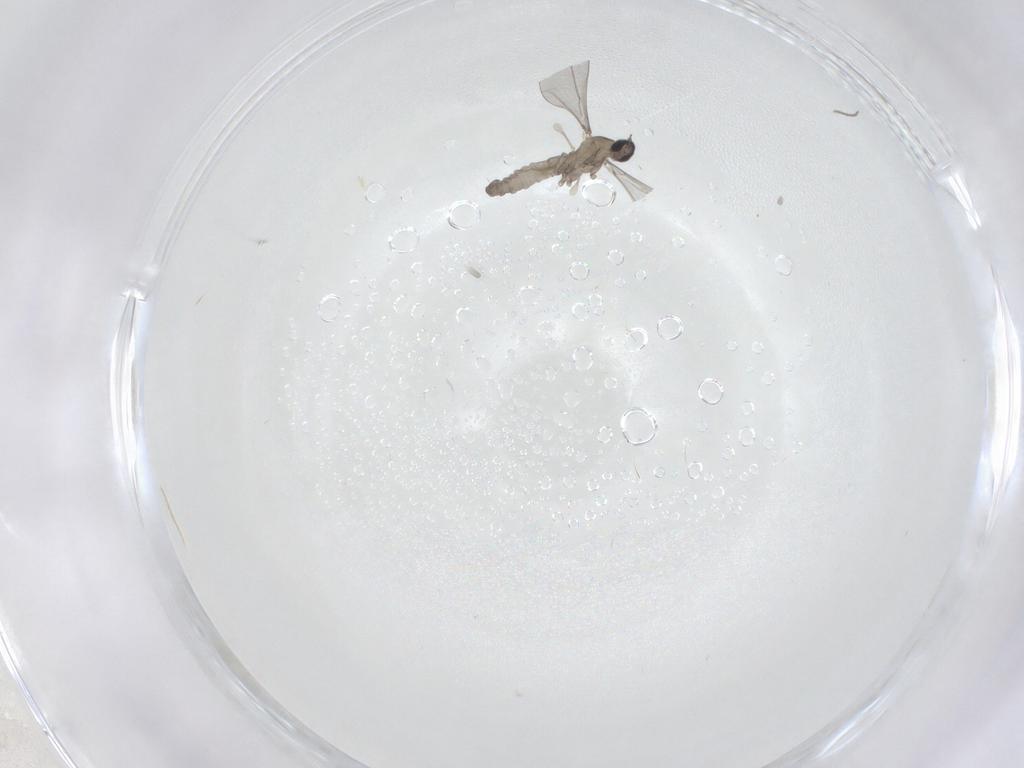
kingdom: Animalia
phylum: Arthropoda
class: Insecta
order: Diptera
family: Cecidomyiidae
